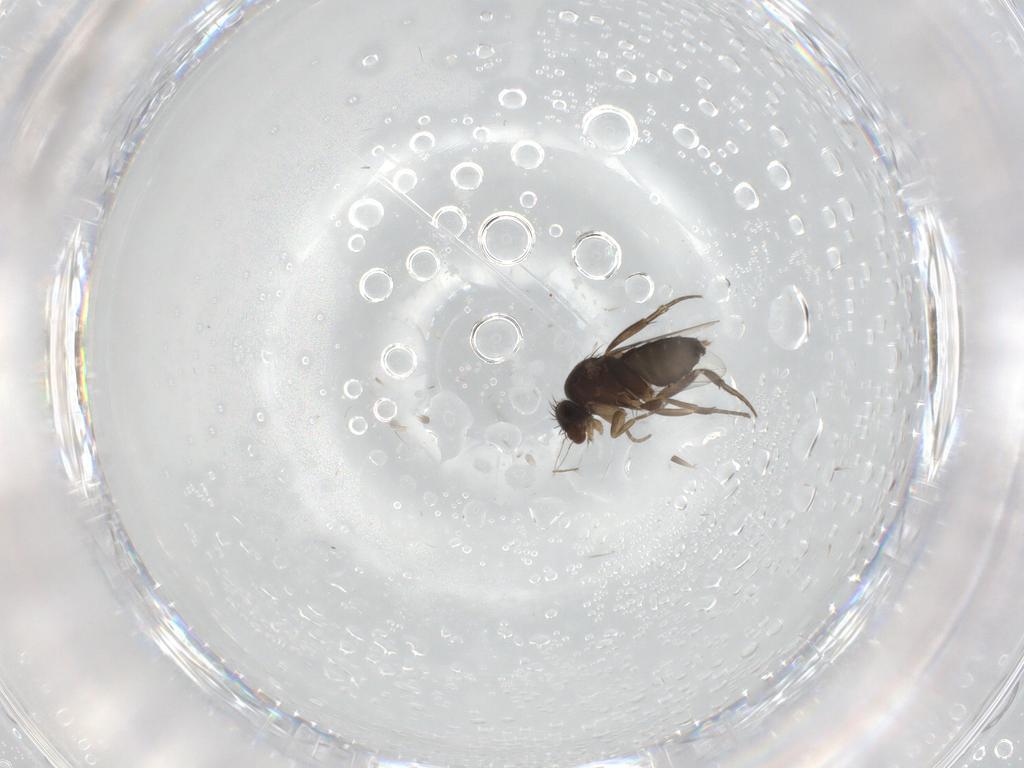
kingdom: Animalia
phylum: Arthropoda
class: Insecta
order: Diptera
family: Phoridae
